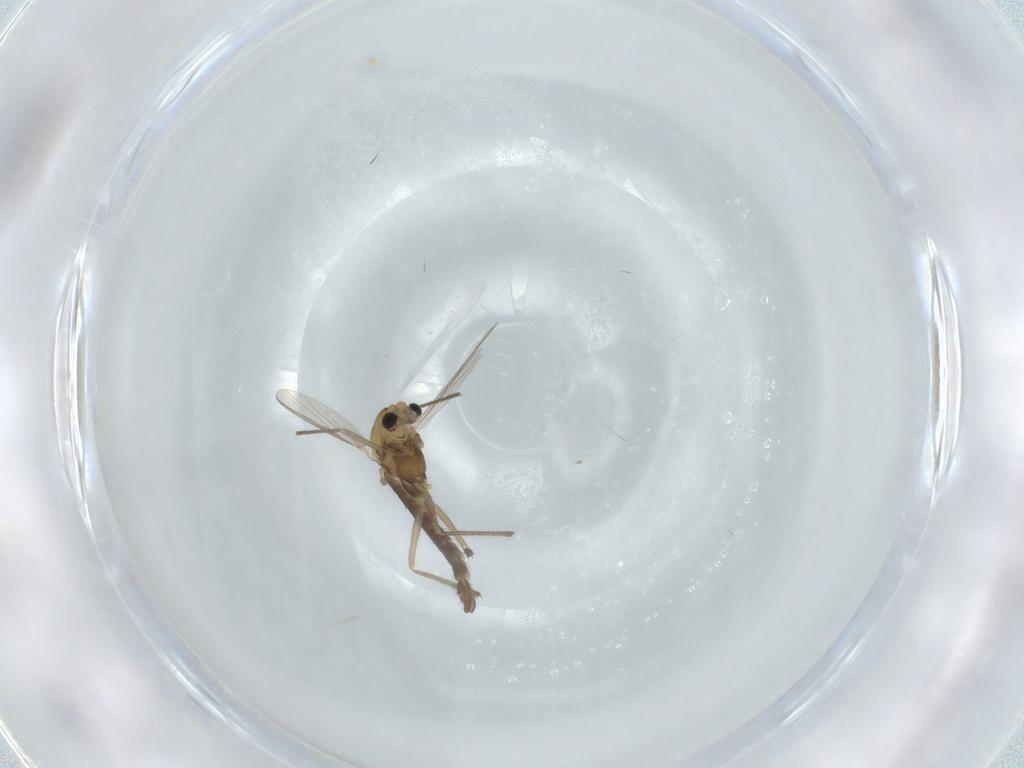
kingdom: Animalia
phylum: Arthropoda
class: Insecta
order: Diptera
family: Chironomidae
